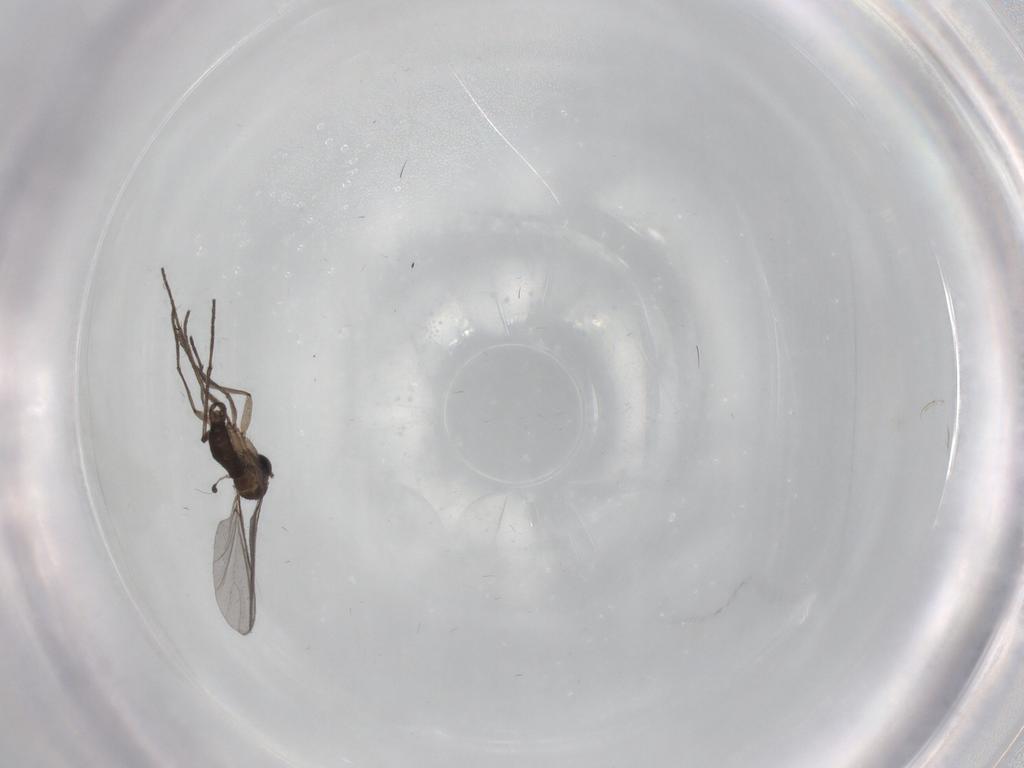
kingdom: Animalia
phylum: Arthropoda
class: Insecta
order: Diptera
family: Sciaridae
